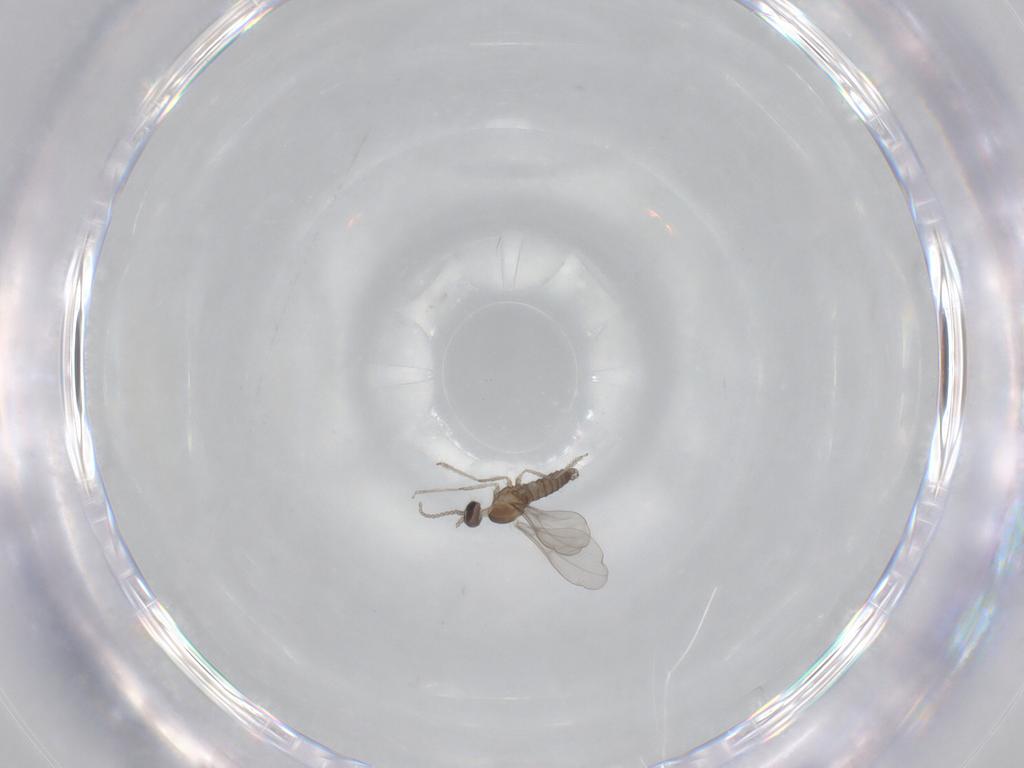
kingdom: Animalia
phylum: Arthropoda
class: Insecta
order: Diptera
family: Cecidomyiidae
